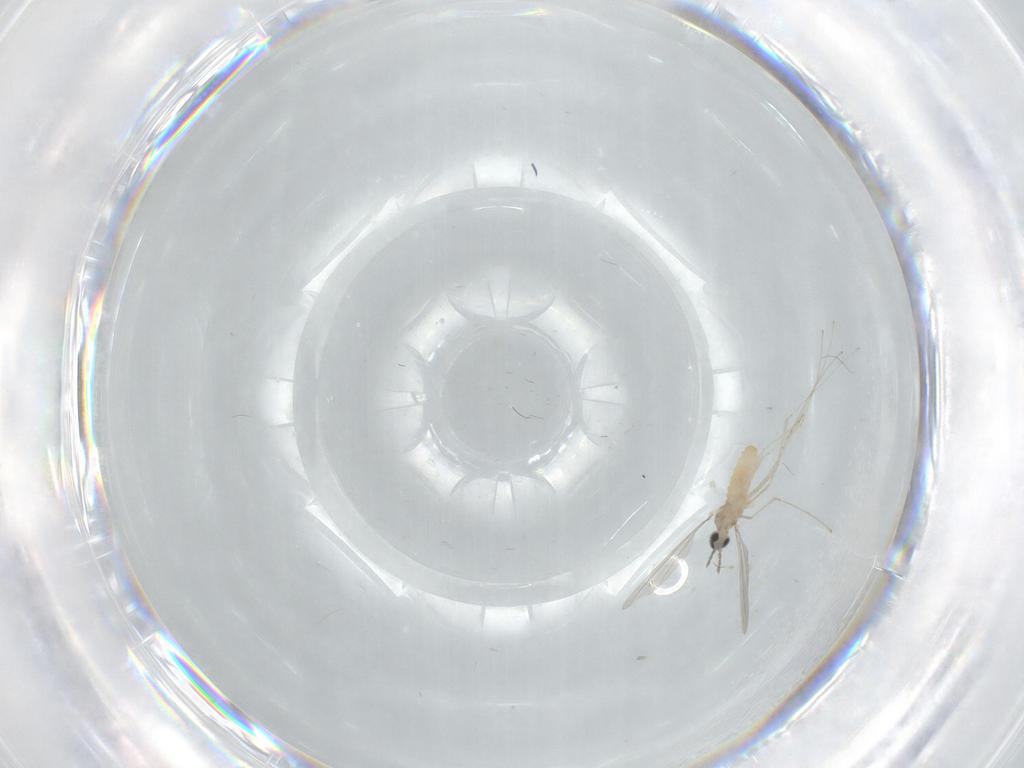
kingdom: Animalia
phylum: Arthropoda
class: Insecta
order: Diptera
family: Cecidomyiidae
